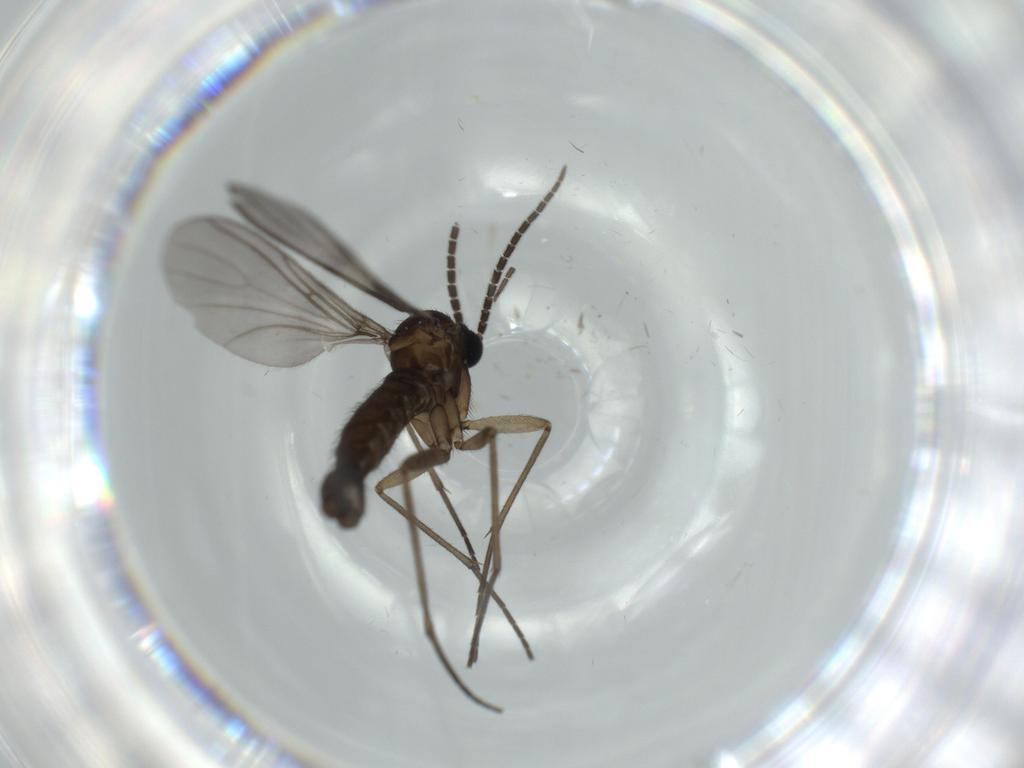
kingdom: Animalia
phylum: Arthropoda
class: Insecta
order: Diptera
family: Sciaridae
